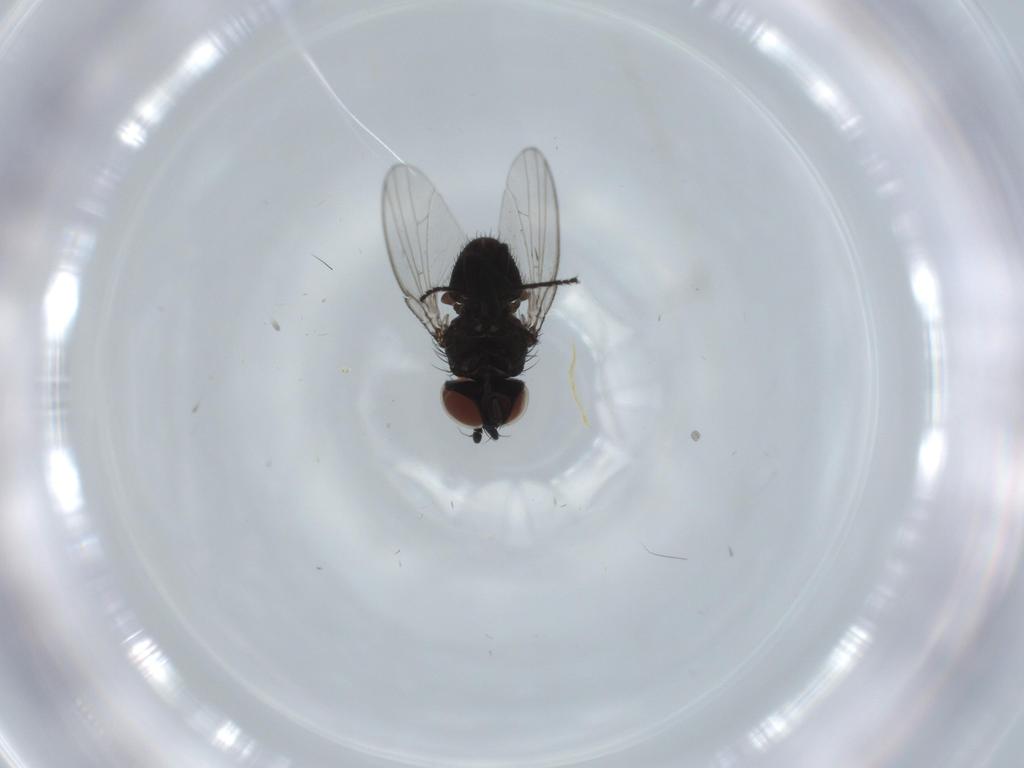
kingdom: Animalia
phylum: Arthropoda
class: Insecta
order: Diptera
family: Milichiidae
